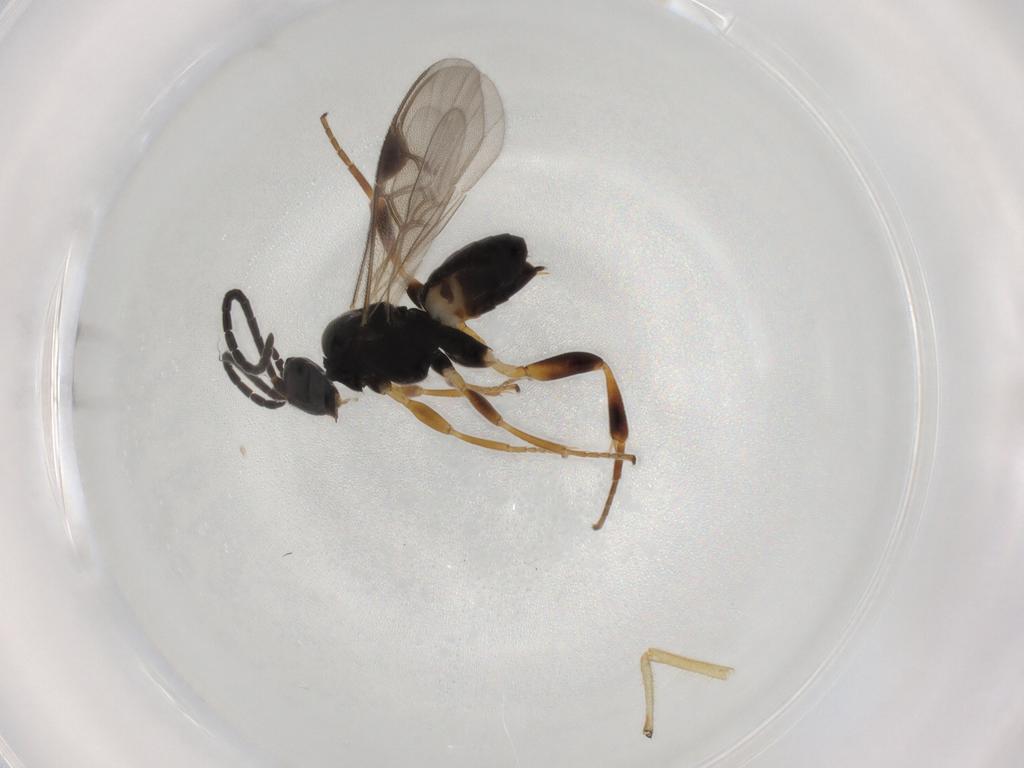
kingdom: Animalia
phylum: Arthropoda
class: Insecta
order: Hymenoptera
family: Braconidae
